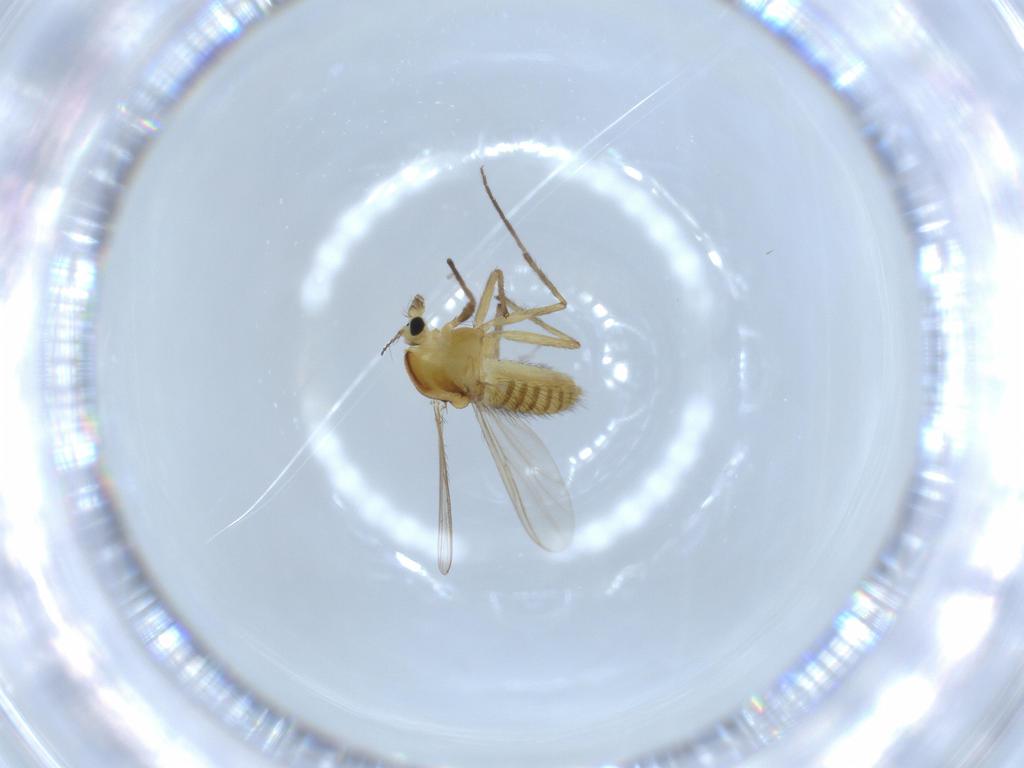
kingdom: Animalia
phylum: Arthropoda
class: Insecta
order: Diptera
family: Chironomidae
